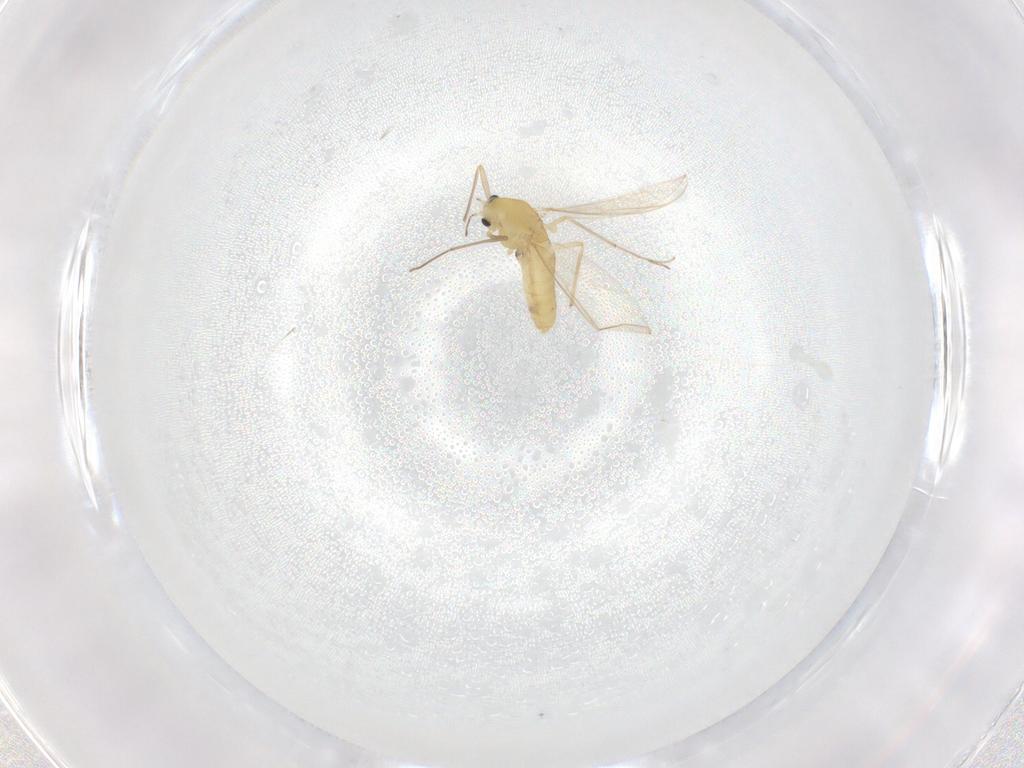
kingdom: Animalia
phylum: Arthropoda
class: Insecta
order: Diptera
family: Chironomidae
